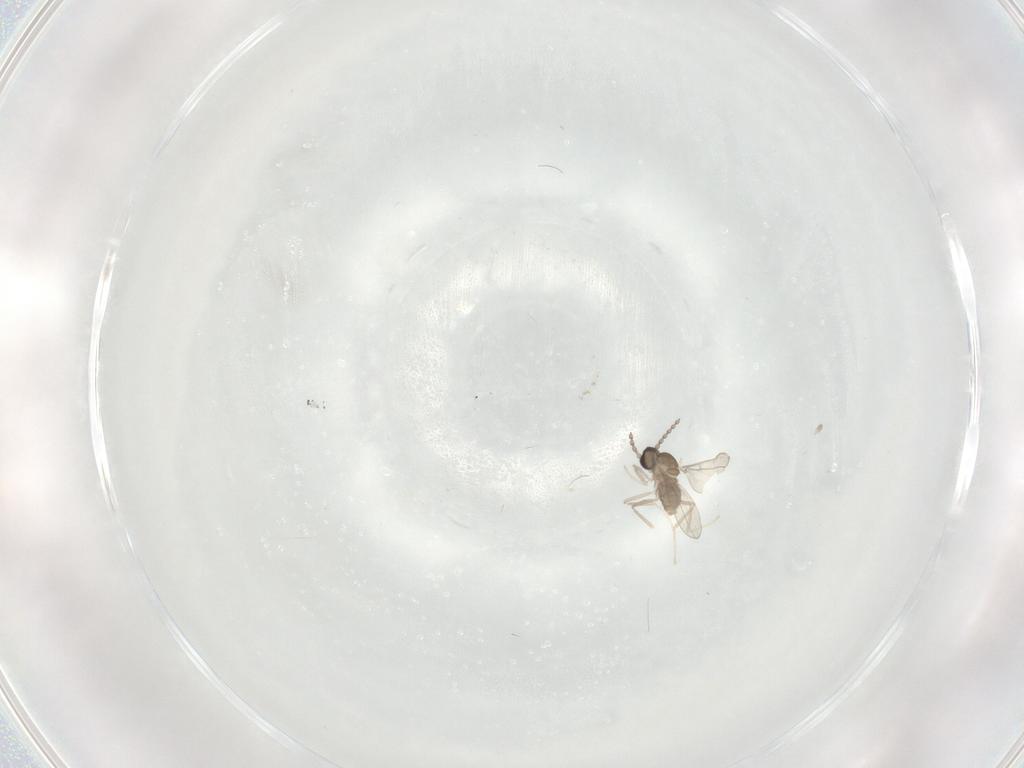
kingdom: Animalia
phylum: Arthropoda
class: Insecta
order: Diptera
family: Cecidomyiidae
